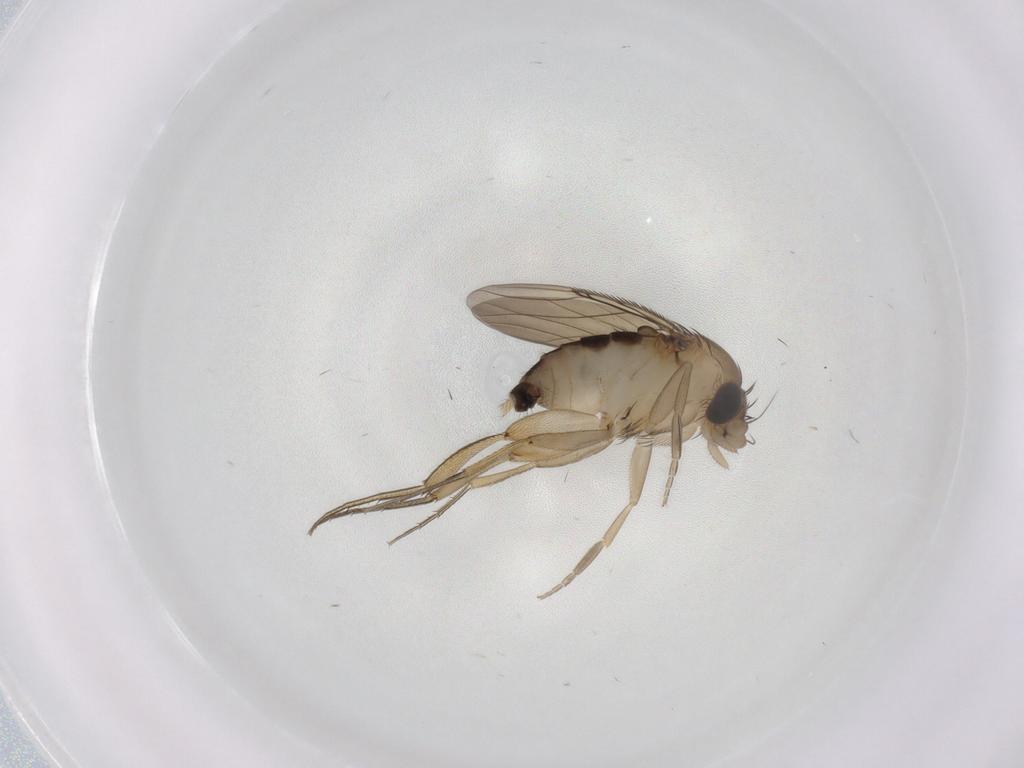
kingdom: Animalia
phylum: Arthropoda
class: Insecta
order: Diptera
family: Phoridae
